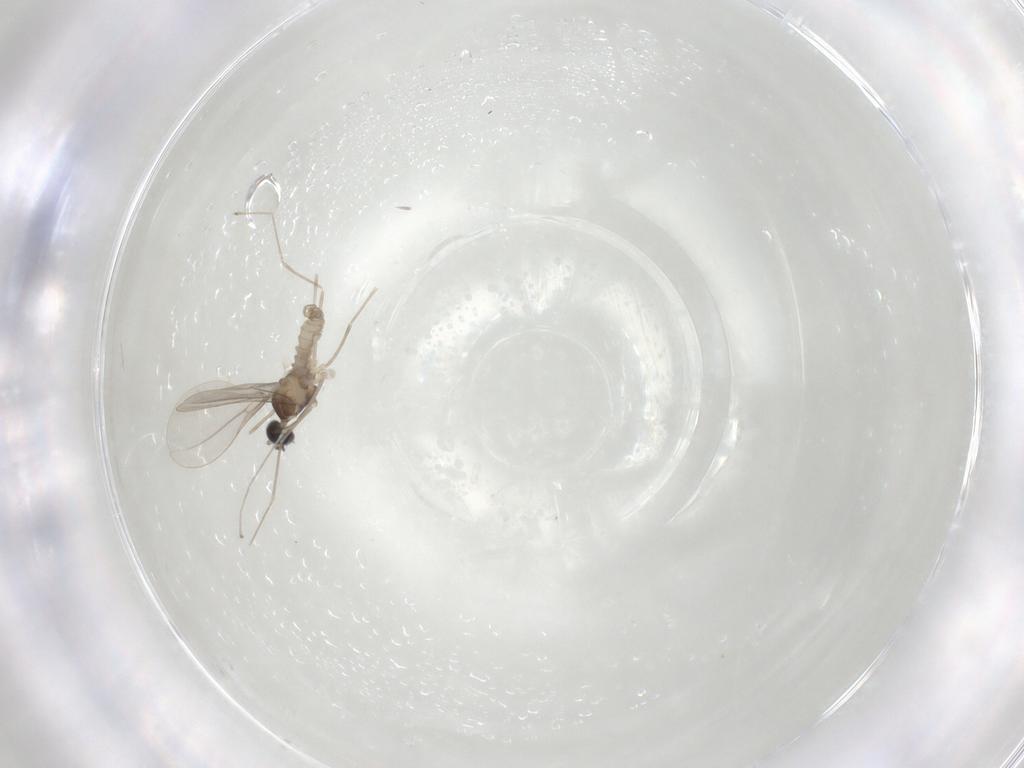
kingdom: Animalia
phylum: Arthropoda
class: Insecta
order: Diptera
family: Cecidomyiidae
